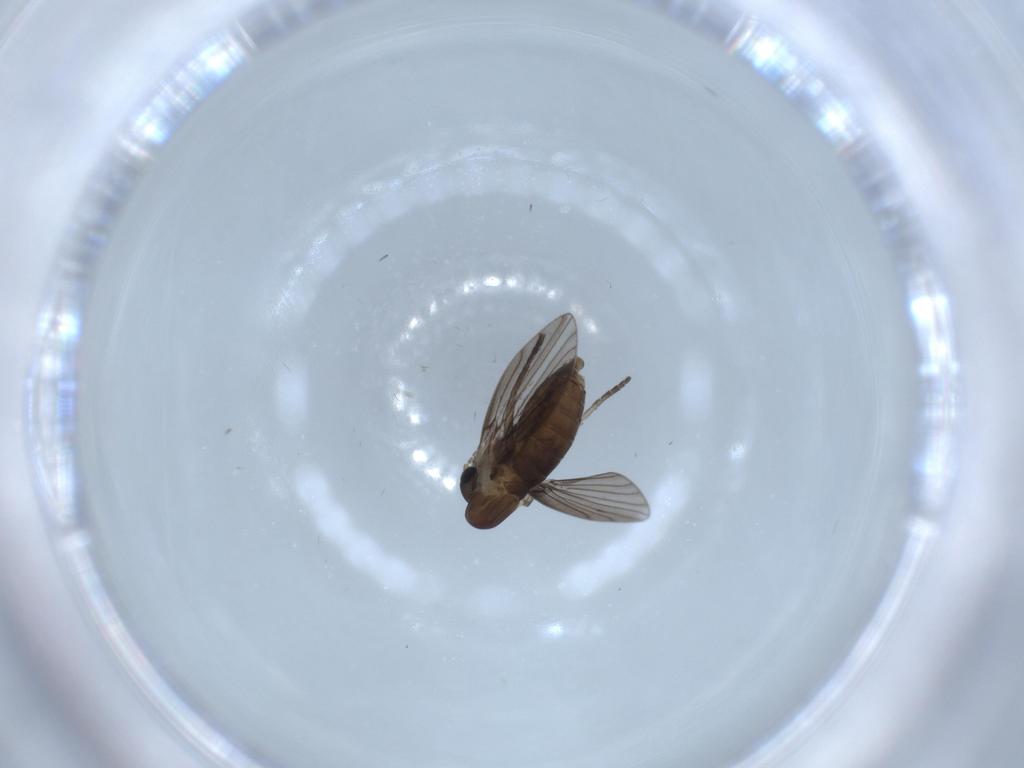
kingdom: Animalia
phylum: Arthropoda
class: Insecta
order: Diptera
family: Psychodidae
